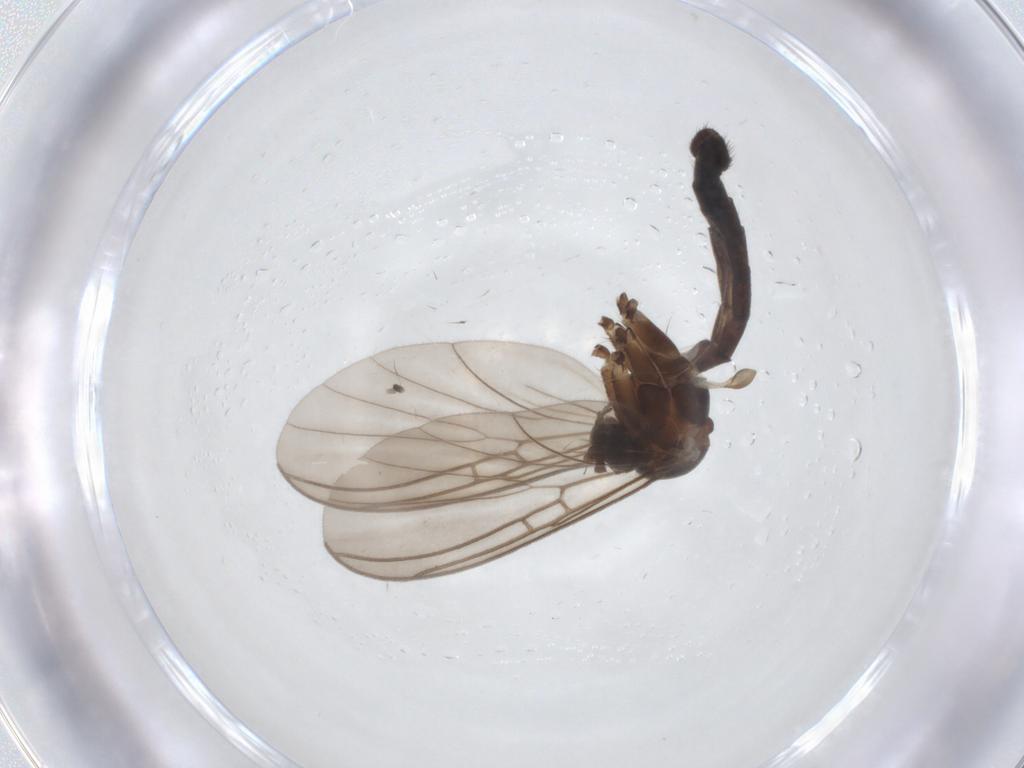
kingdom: Animalia
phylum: Arthropoda
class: Insecta
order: Diptera
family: Mycetophilidae
